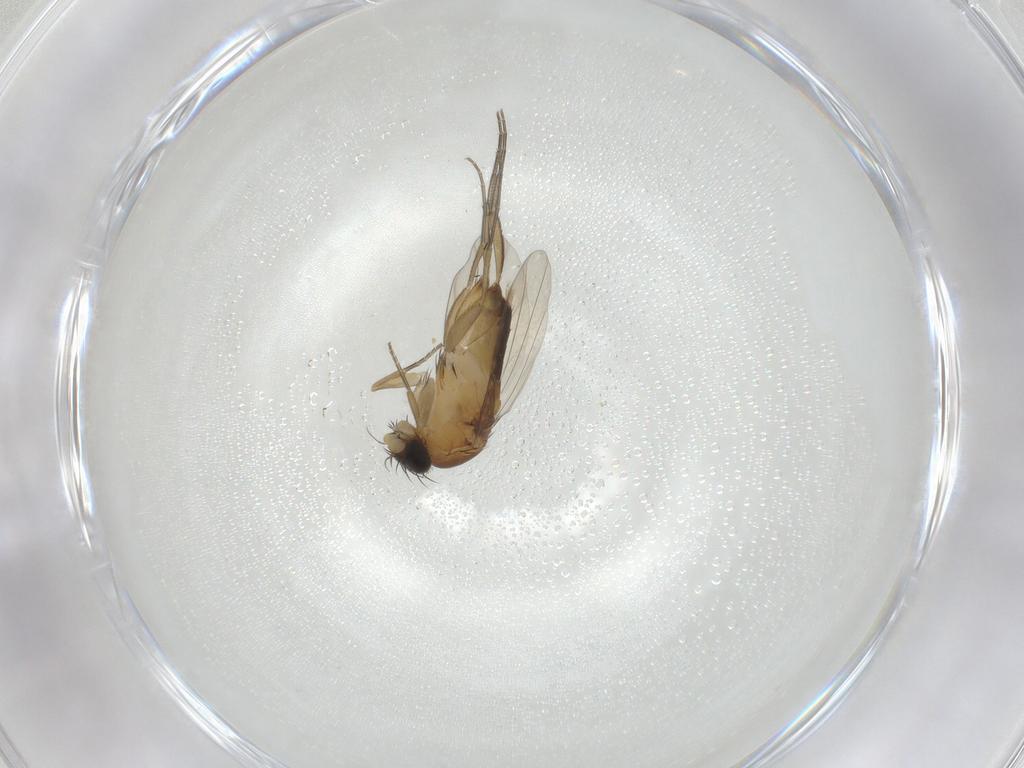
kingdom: Animalia
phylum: Arthropoda
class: Insecta
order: Diptera
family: Phoridae
